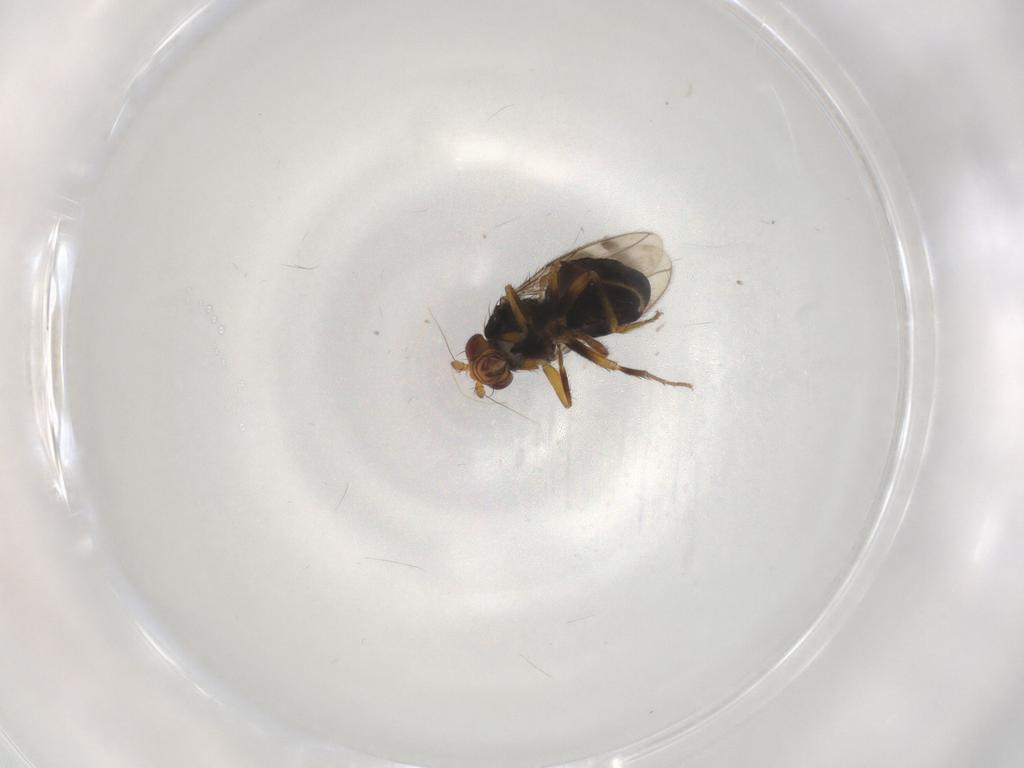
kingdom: Animalia
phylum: Arthropoda
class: Insecta
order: Diptera
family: Sphaeroceridae
